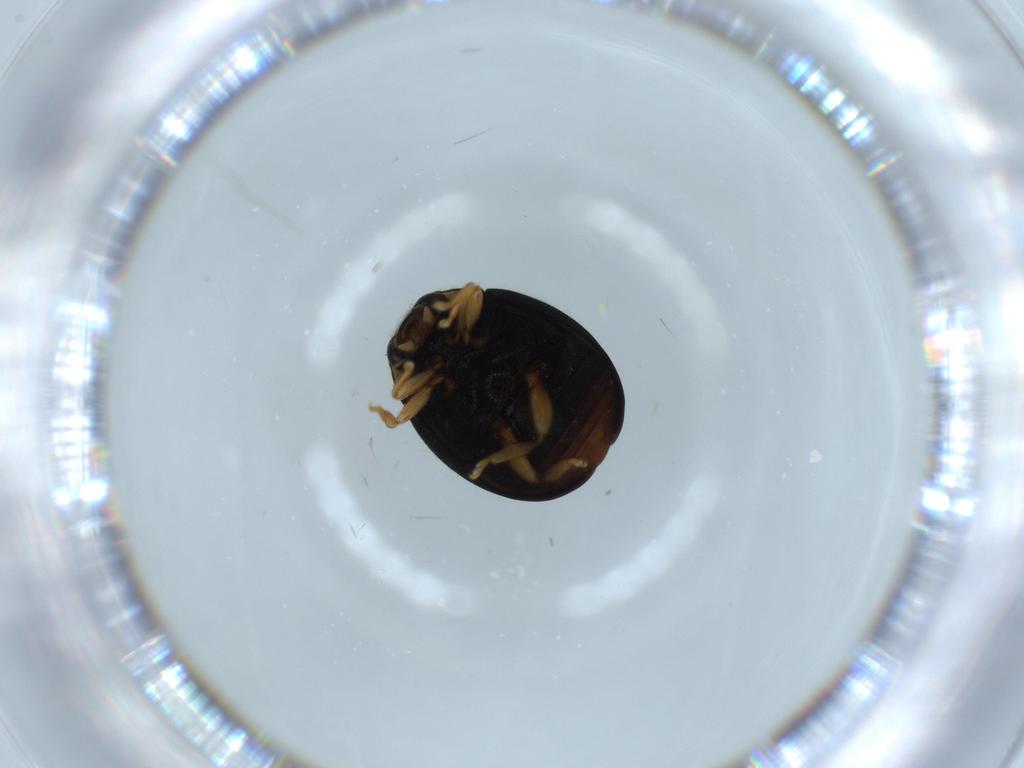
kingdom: Animalia
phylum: Arthropoda
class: Insecta
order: Coleoptera
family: Coccinellidae
